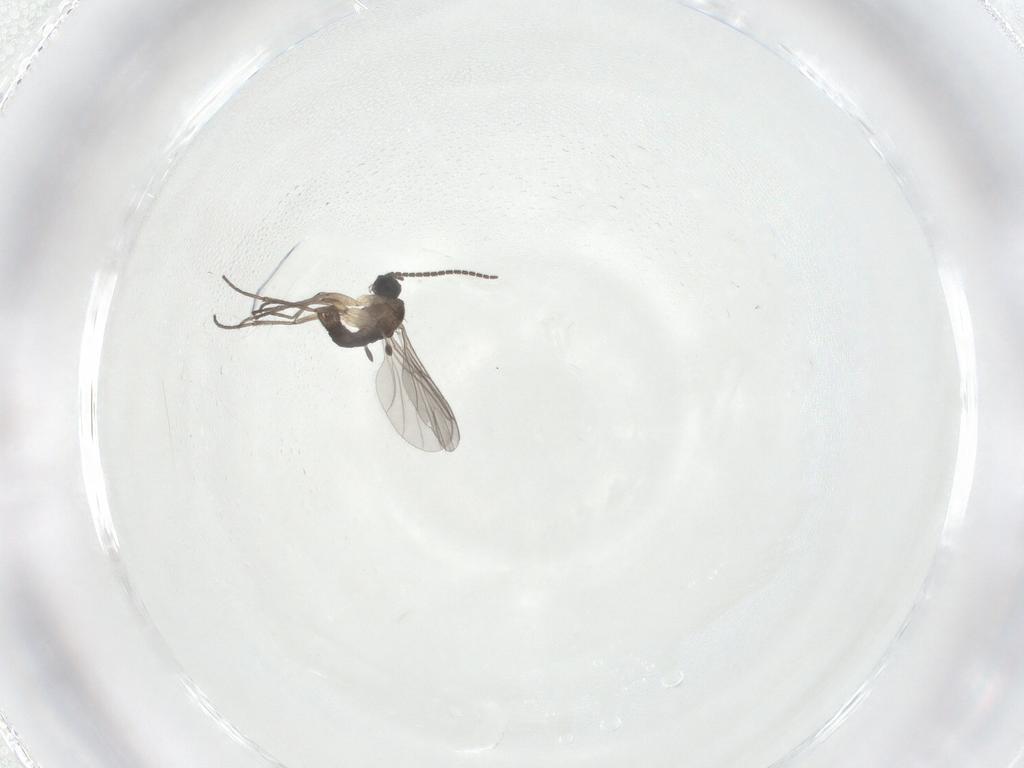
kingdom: Animalia
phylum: Arthropoda
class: Insecta
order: Diptera
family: Sciaridae
